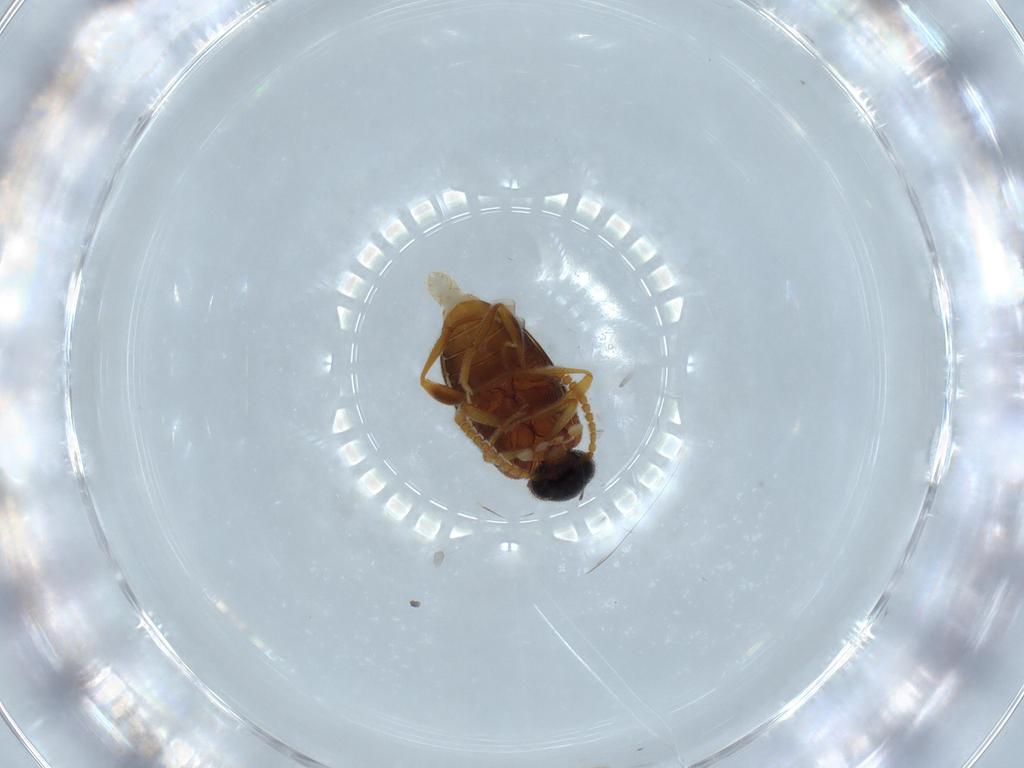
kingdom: Animalia
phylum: Arthropoda
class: Insecta
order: Coleoptera
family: Aderidae
